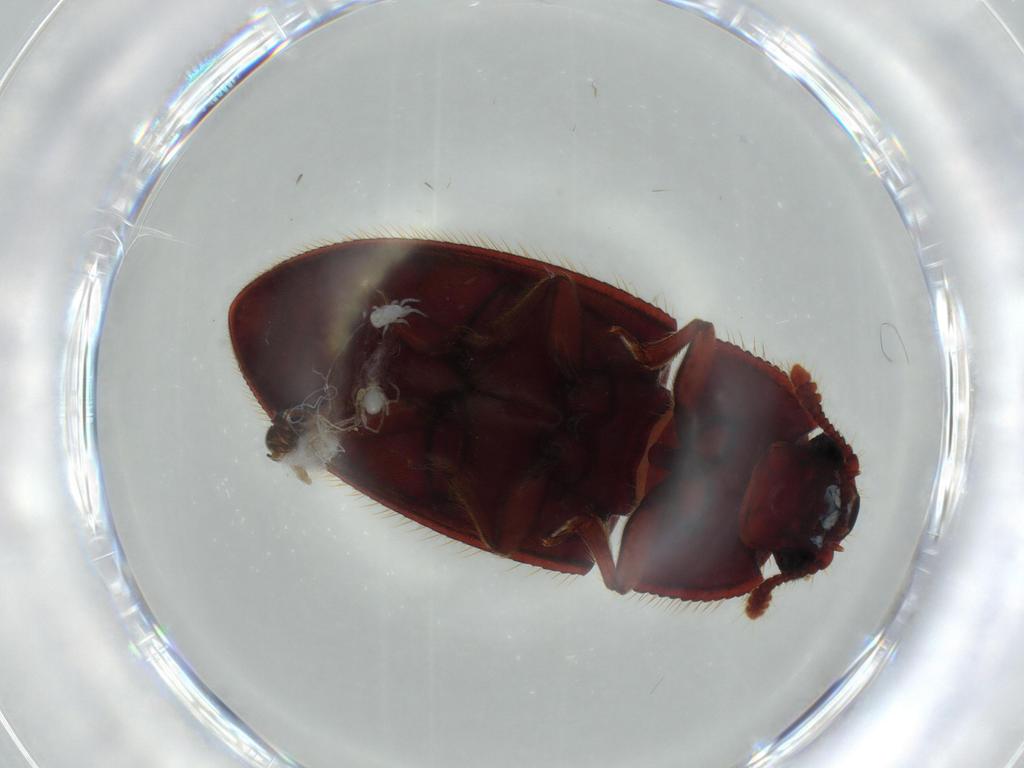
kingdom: Animalia
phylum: Arthropoda
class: Insecta
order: Coleoptera
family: Biphyllidae
